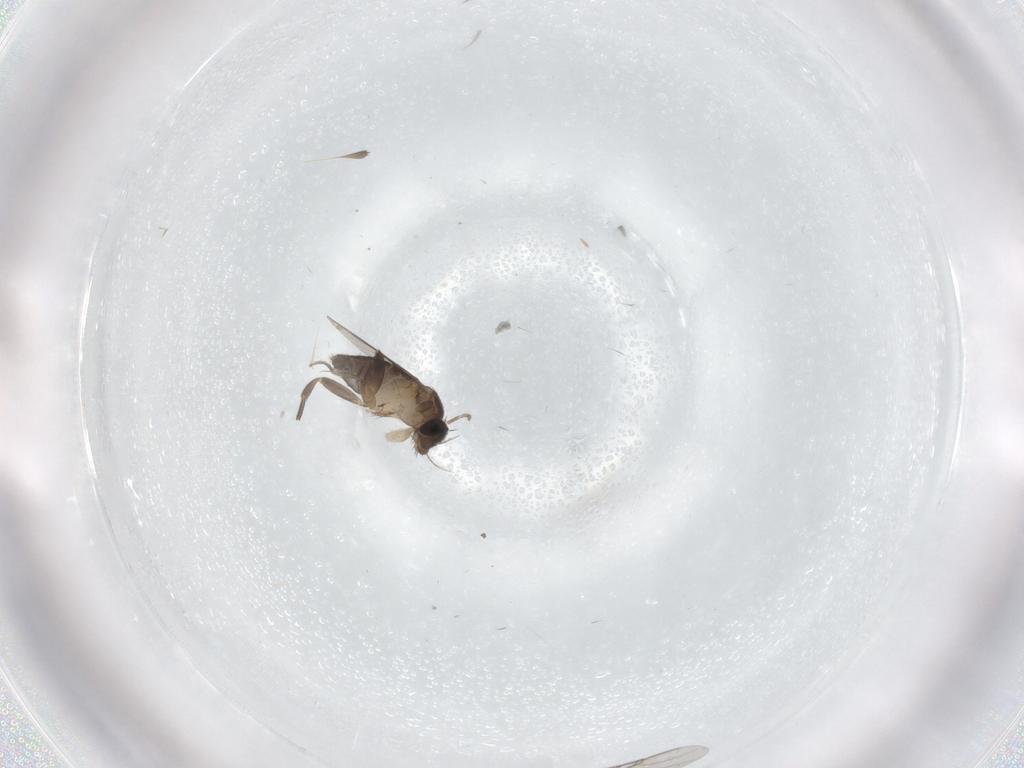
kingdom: Animalia
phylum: Arthropoda
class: Insecta
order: Diptera
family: Phoridae
